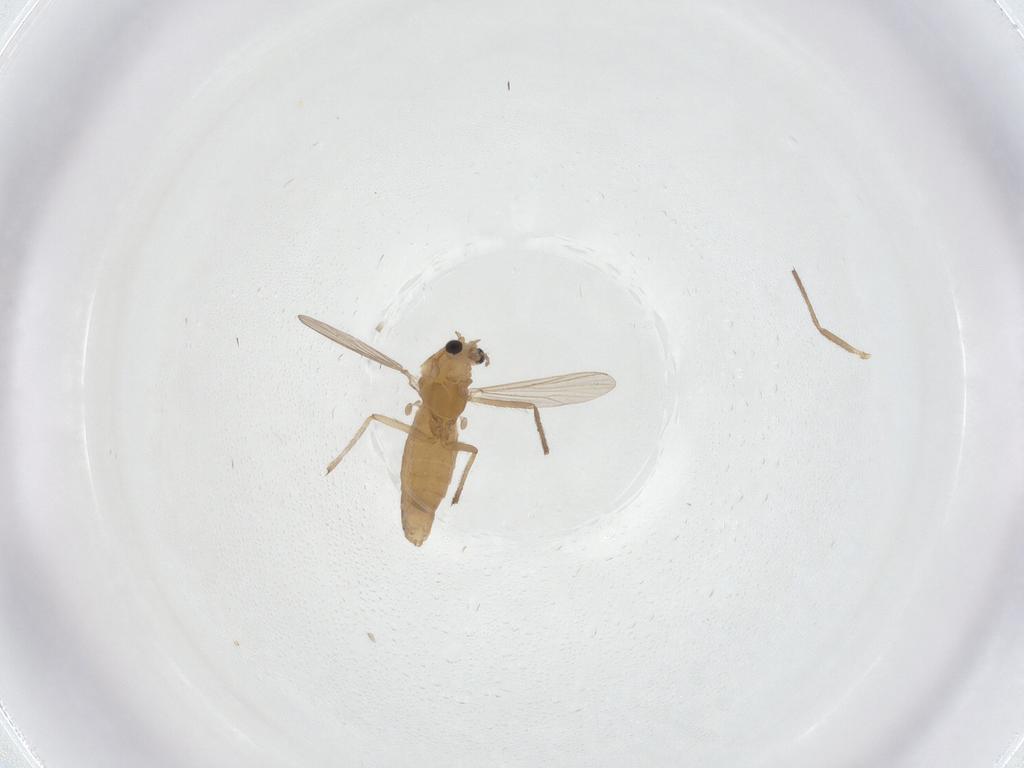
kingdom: Animalia
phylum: Arthropoda
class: Insecta
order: Diptera
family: Chironomidae
